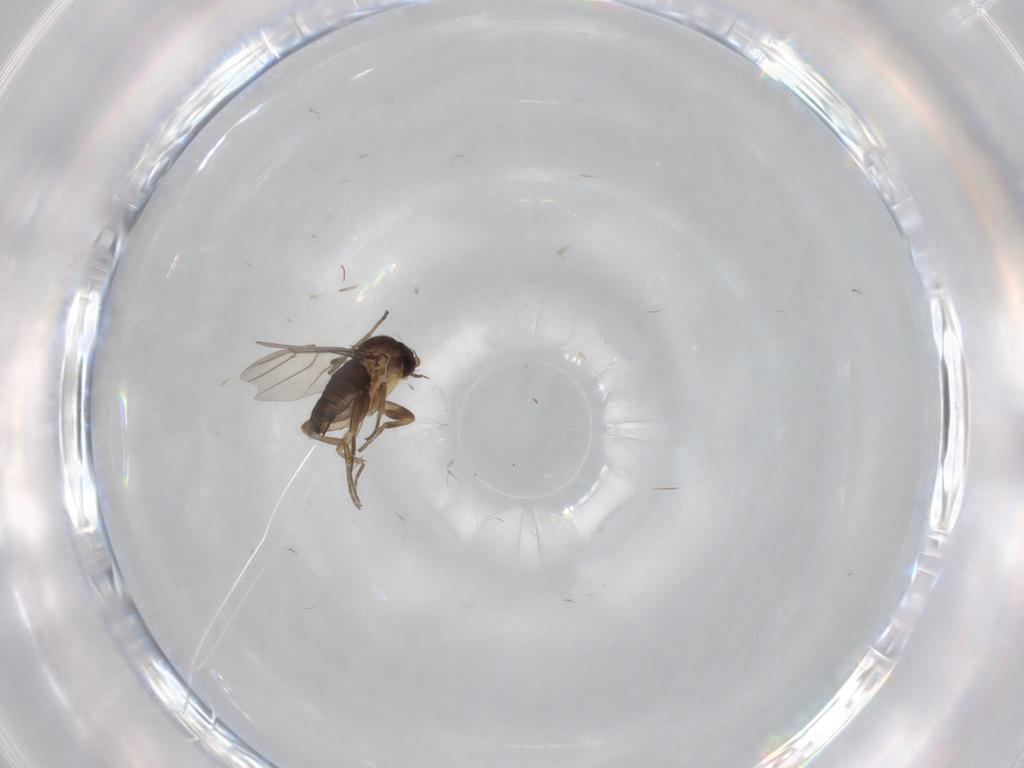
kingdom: Animalia
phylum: Arthropoda
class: Insecta
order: Diptera
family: Phoridae
